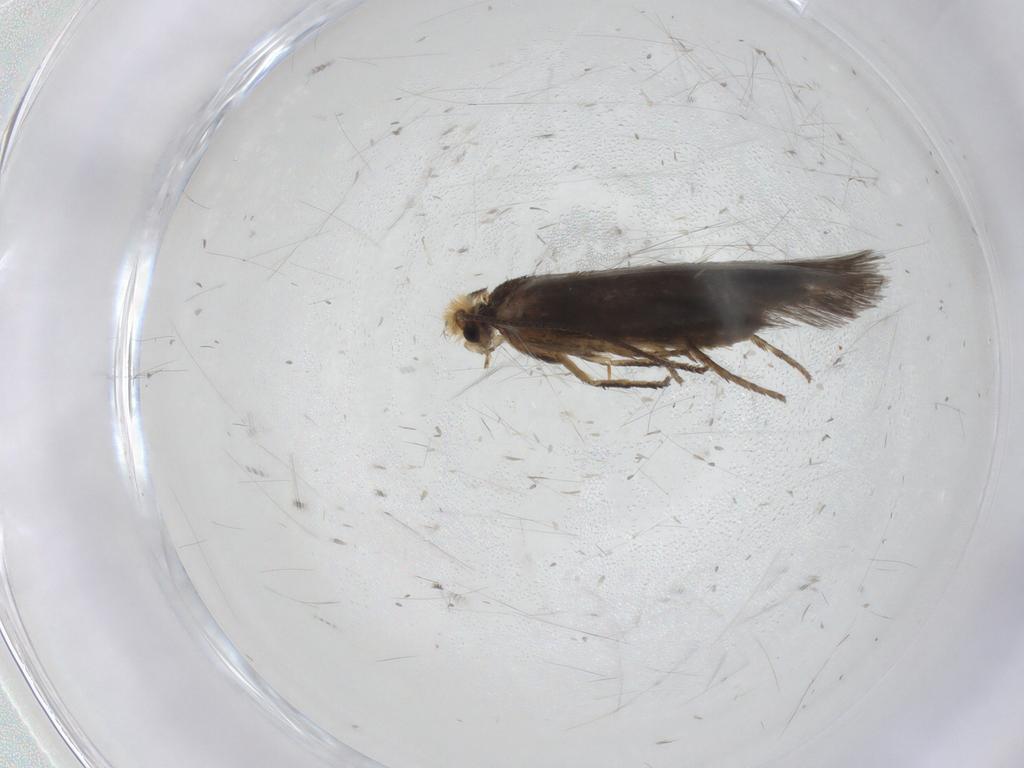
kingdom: Animalia
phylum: Arthropoda
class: Insecta
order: Lepidoptera
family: Nepticulidae
